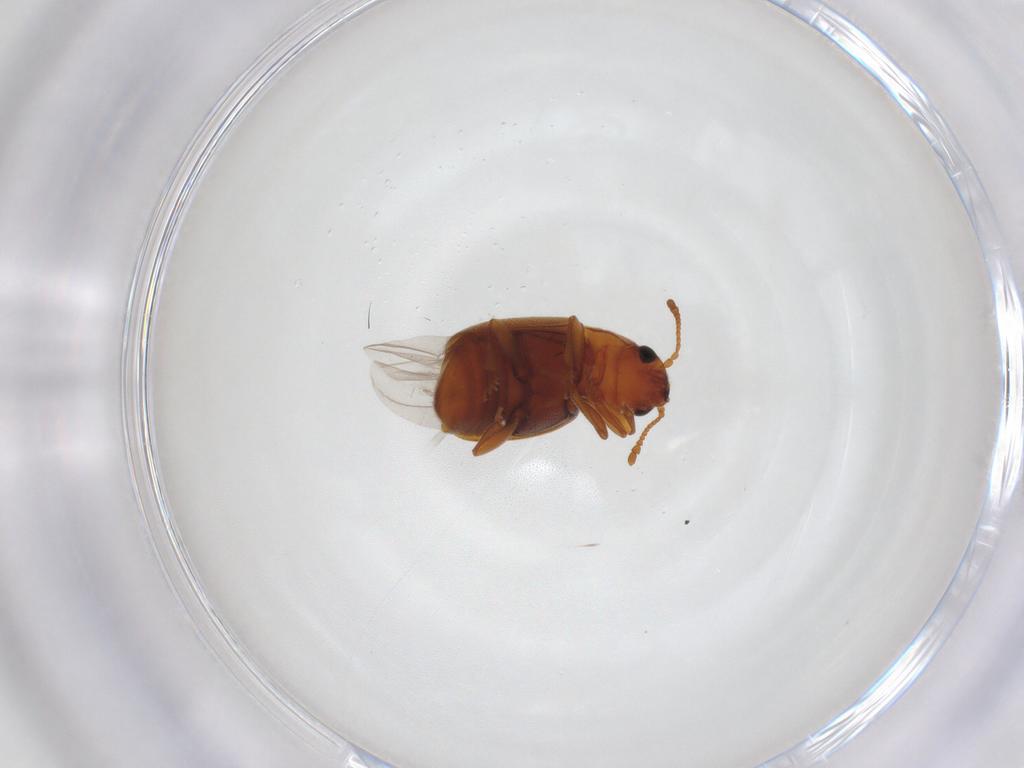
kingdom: Animalia
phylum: Arthropoda
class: Insecta
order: Coleoptera
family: Kateretidae
